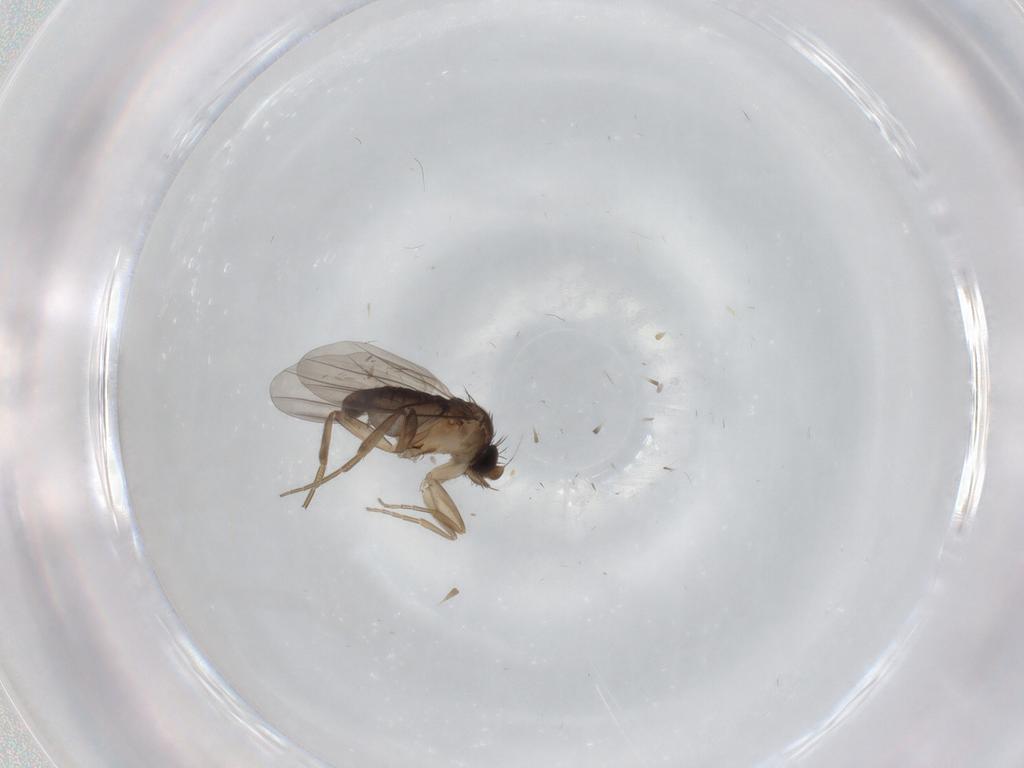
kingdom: Animalia
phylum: Arthropoda
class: Insecta
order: Diptera
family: Phoridae
